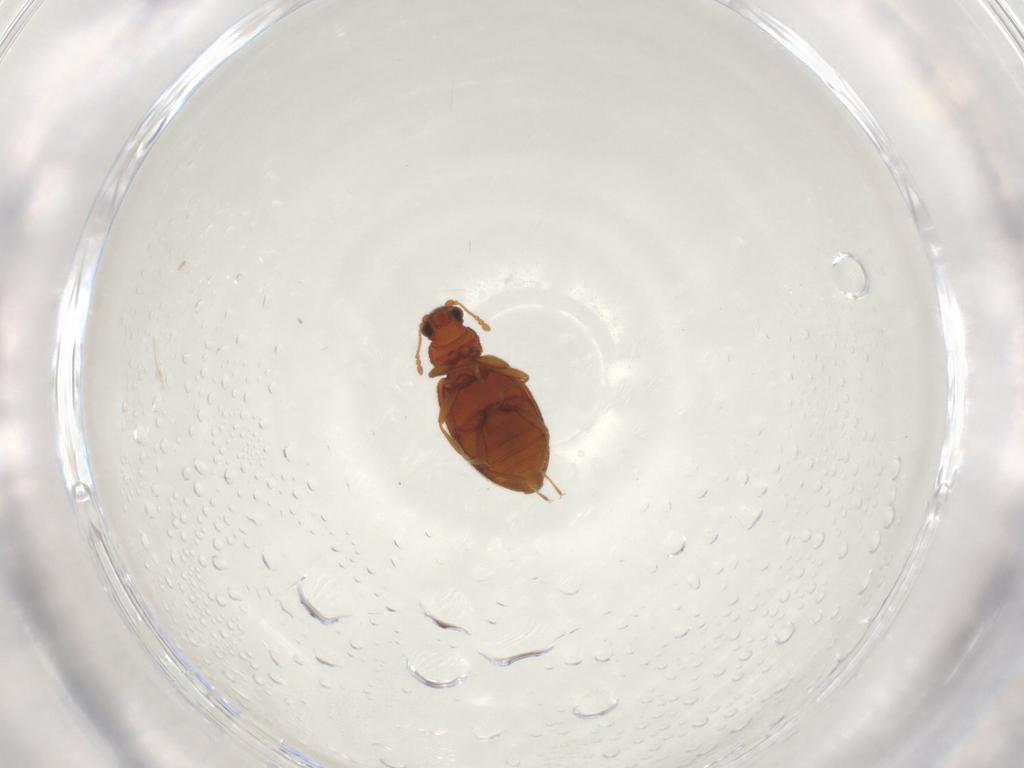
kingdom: Animalia
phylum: Arthropoda
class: Insecta
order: Coleoptera
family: Latridiidae
